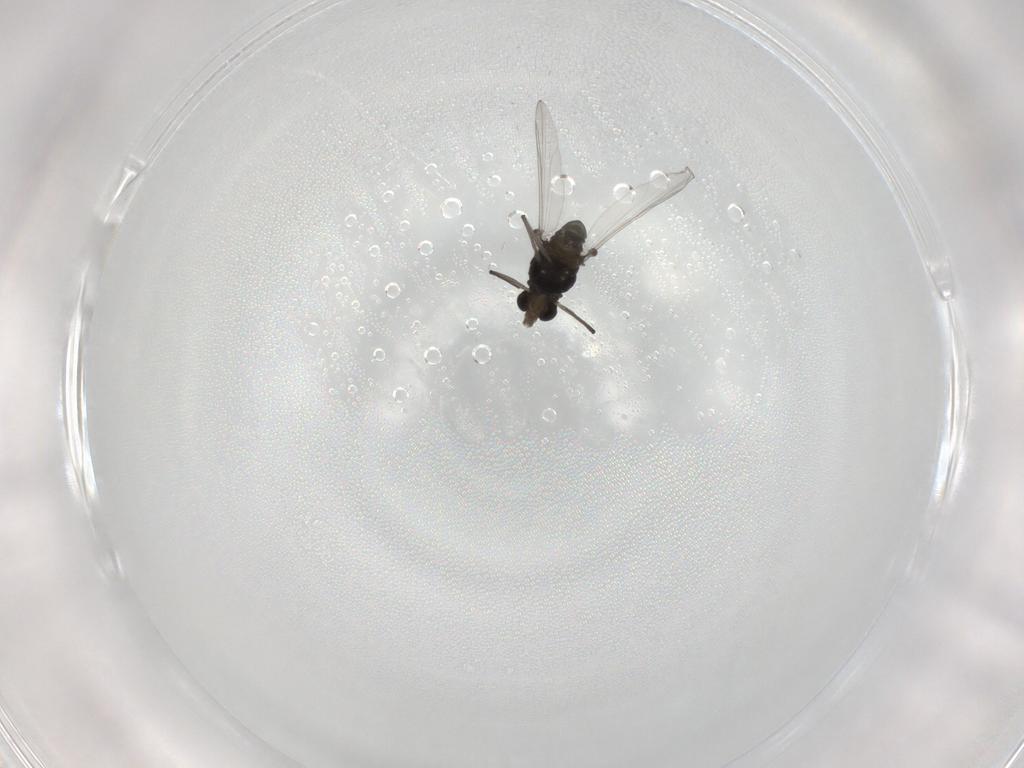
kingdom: Animalia
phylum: Arthropoda
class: Insecta
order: Diptera
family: Chironomidae
